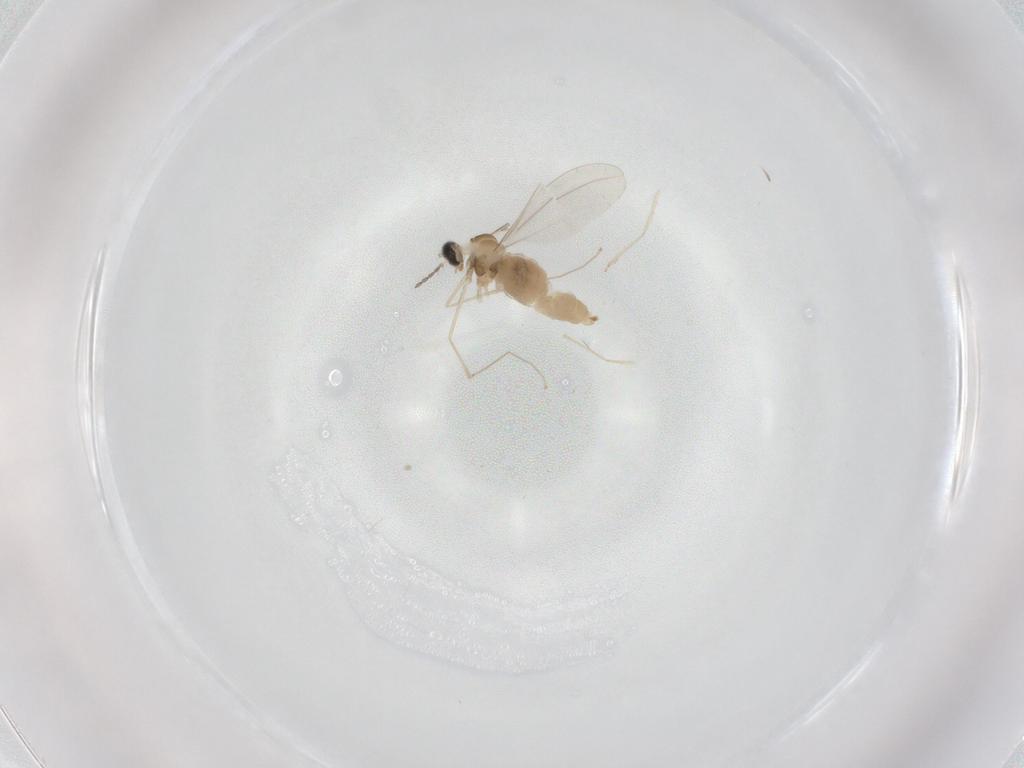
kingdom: Animalia
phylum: Arthropoda
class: Insecta
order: Diptera
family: Cecidomyiidae
